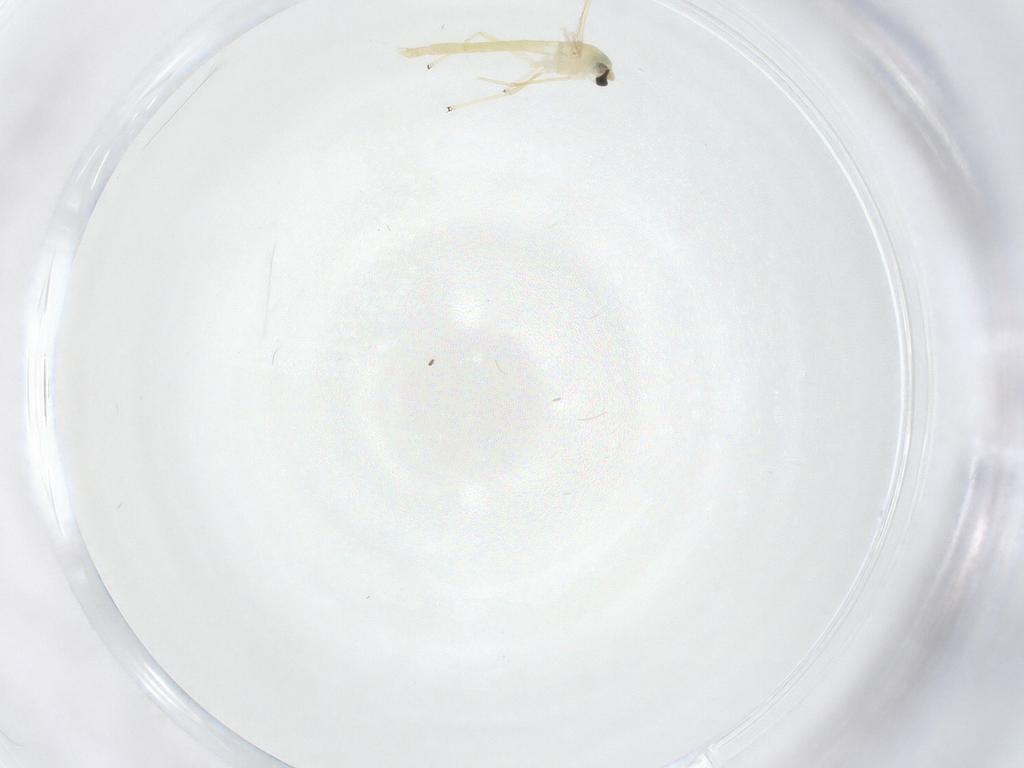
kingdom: Animalia
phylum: Arthropoda
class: Insecta
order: Diptera
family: Chironomidae
